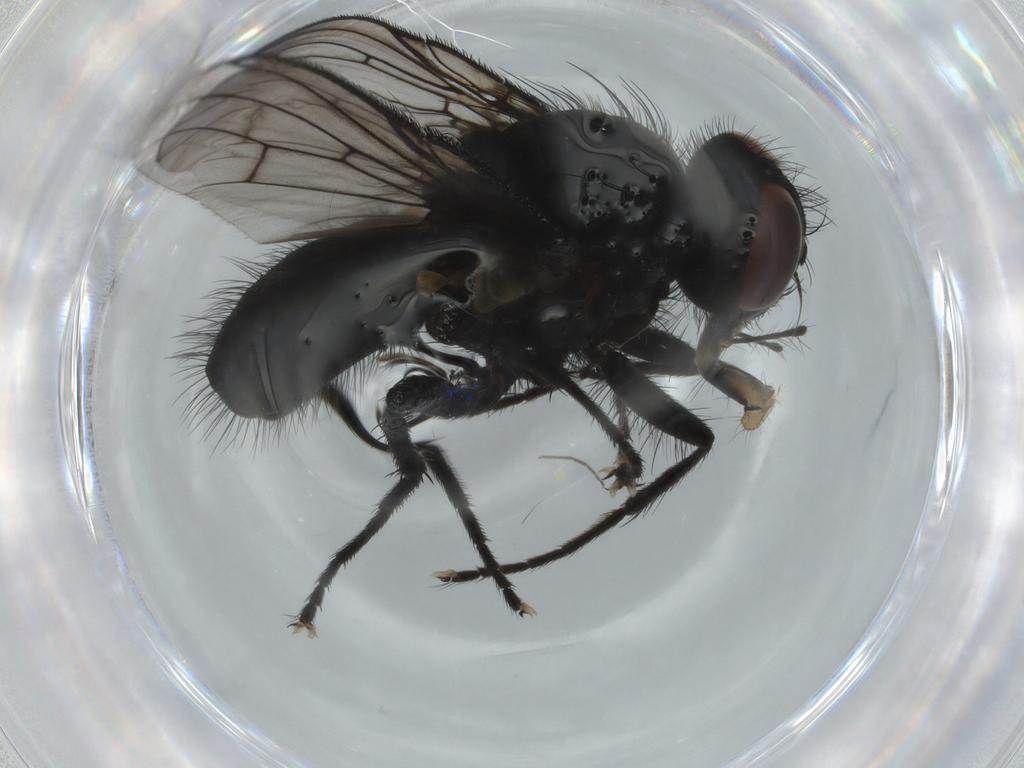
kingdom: Animalia
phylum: Arthropoda
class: Insecta
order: Diptera
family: Muscidae
